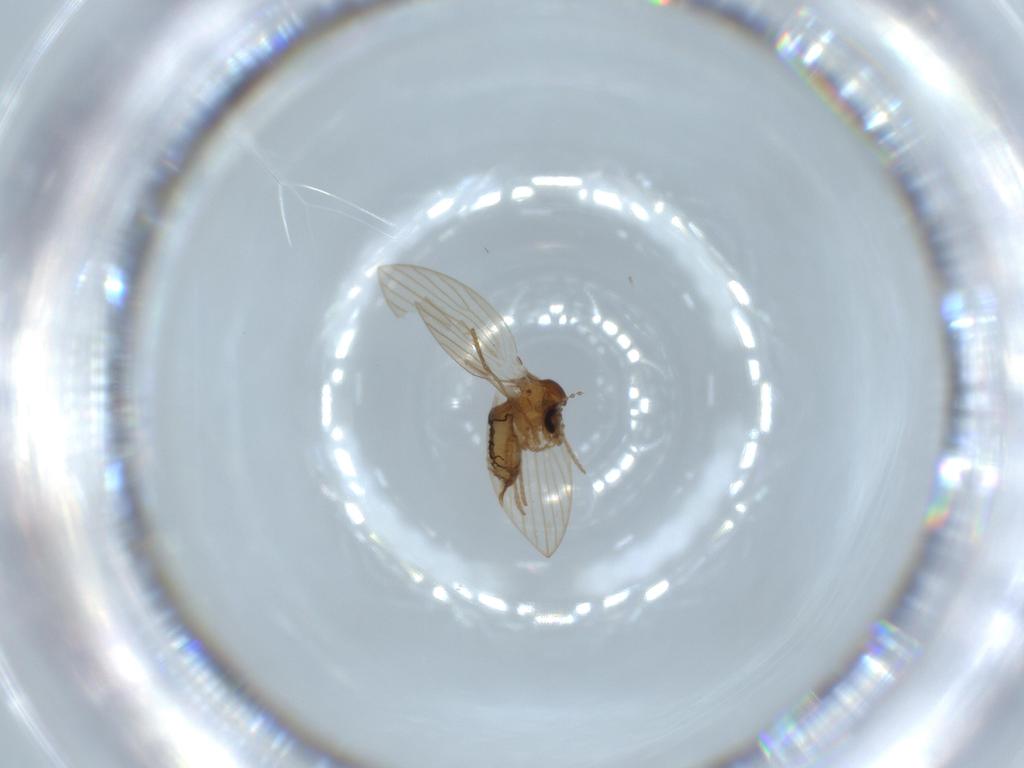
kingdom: Animalia
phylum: Arthropoda
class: Insecta
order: Diptera
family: Psychodidae
